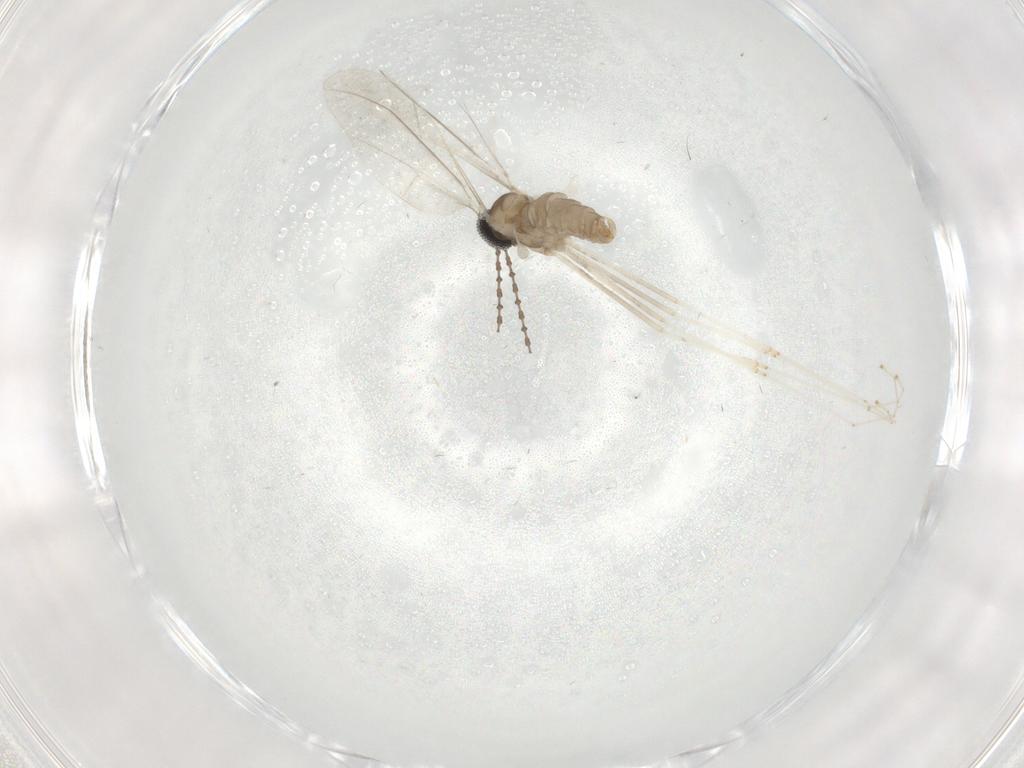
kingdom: Animalia
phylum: Arthropoda
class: Insecta
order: Diptera
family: Cecidomyiidae
